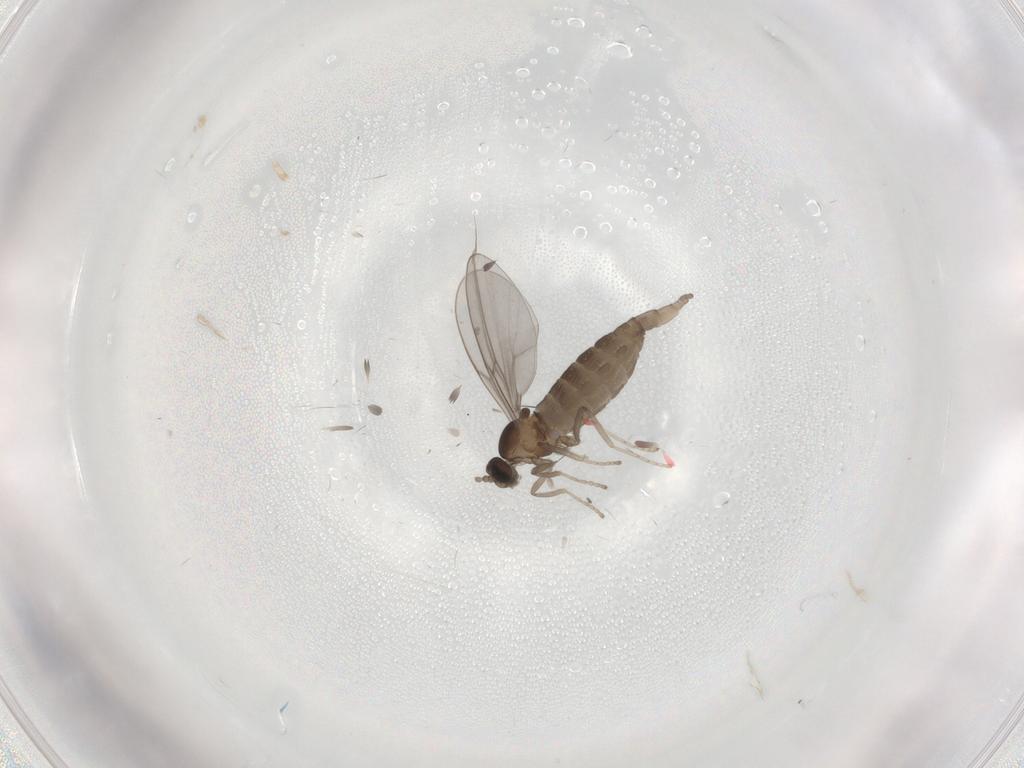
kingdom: Animalia
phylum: Arthropoda
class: Insecta
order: Diptera
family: Cecidomyiidae
